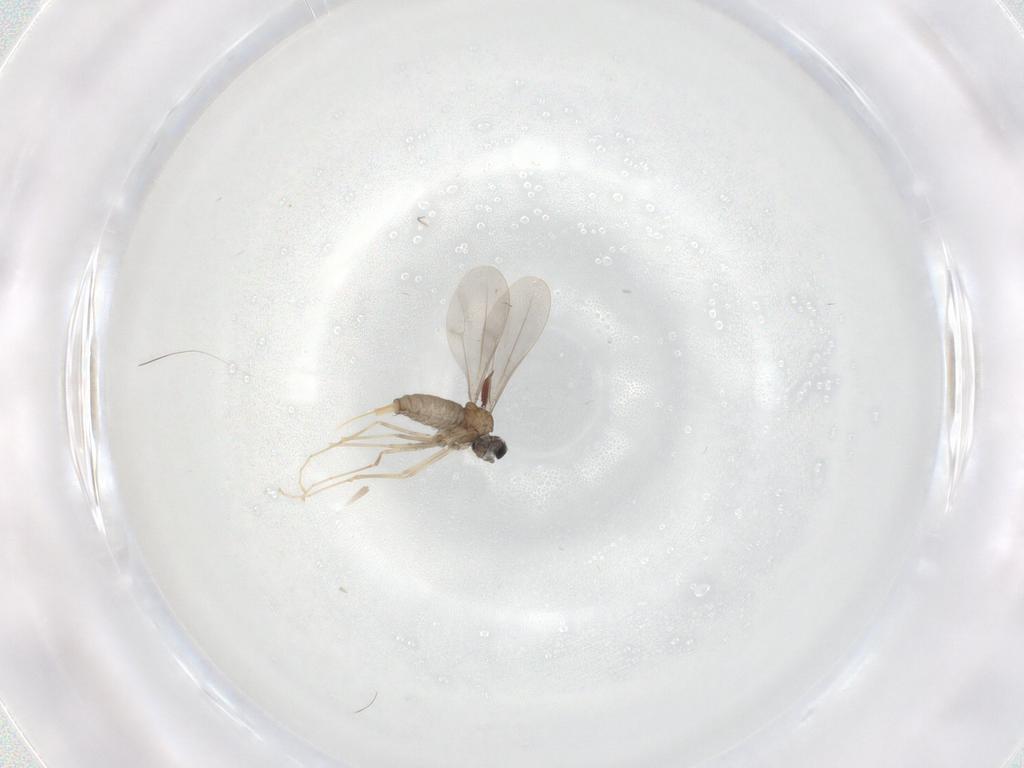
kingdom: Animalia
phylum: Arthropoda
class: Insecta
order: Diptera
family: Cecidomyiidae
